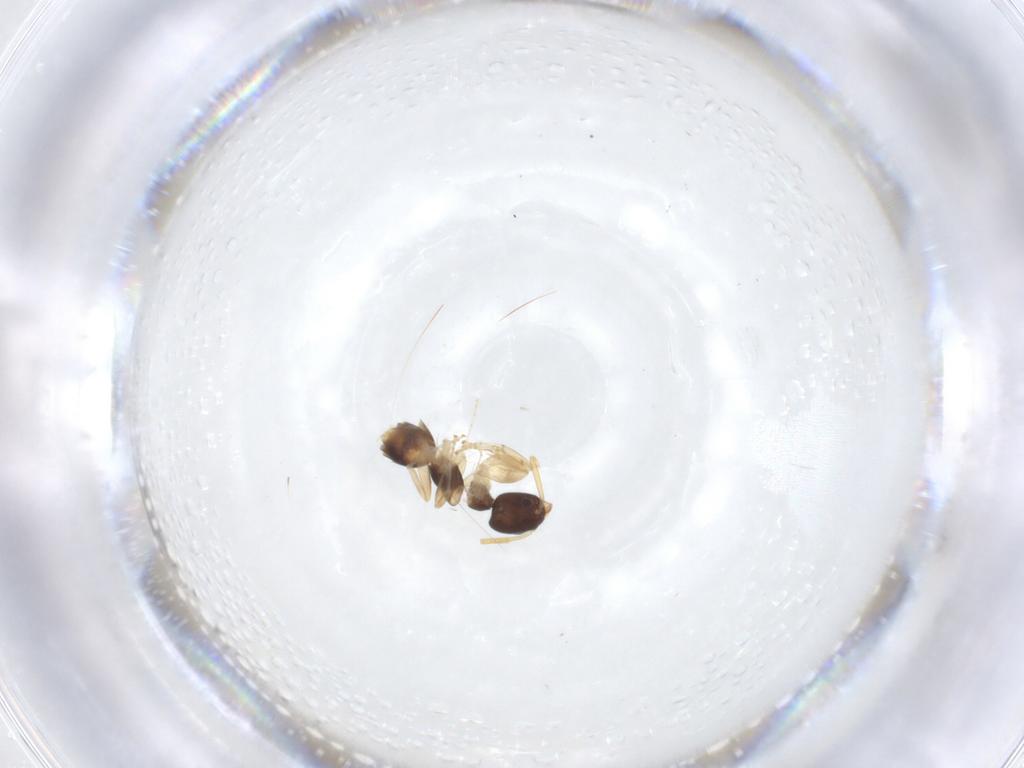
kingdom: Animalia
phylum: Arthropoda
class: Insecta
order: Hymenoptera
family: Formicidae
